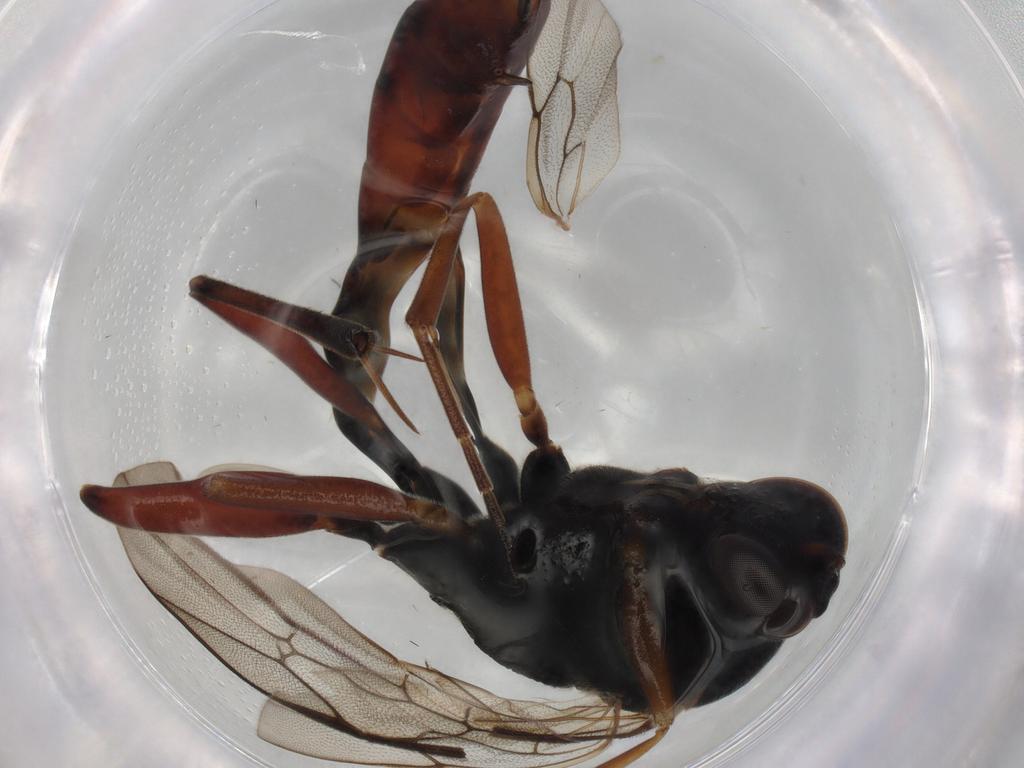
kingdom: Animalia
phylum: Arthropoda
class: Insecta
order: Hymenoptera
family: Ichneumonidae
